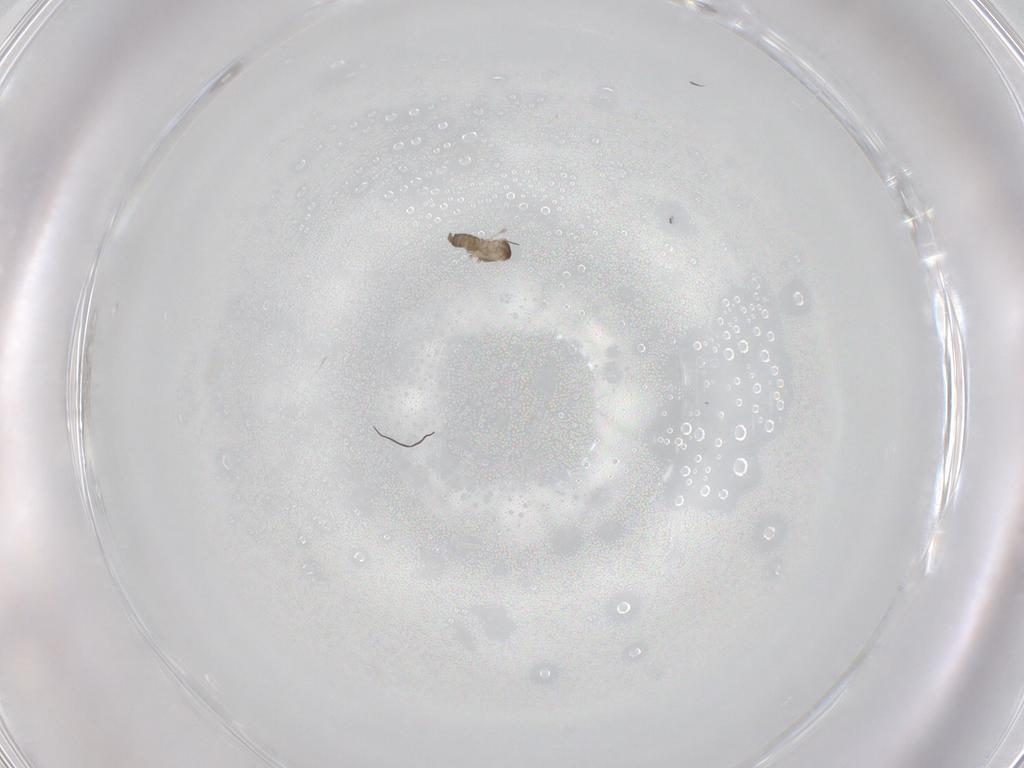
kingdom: Animalia
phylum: Arthropoda
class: Insecta
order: Diptera
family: Cecidomyiidae
